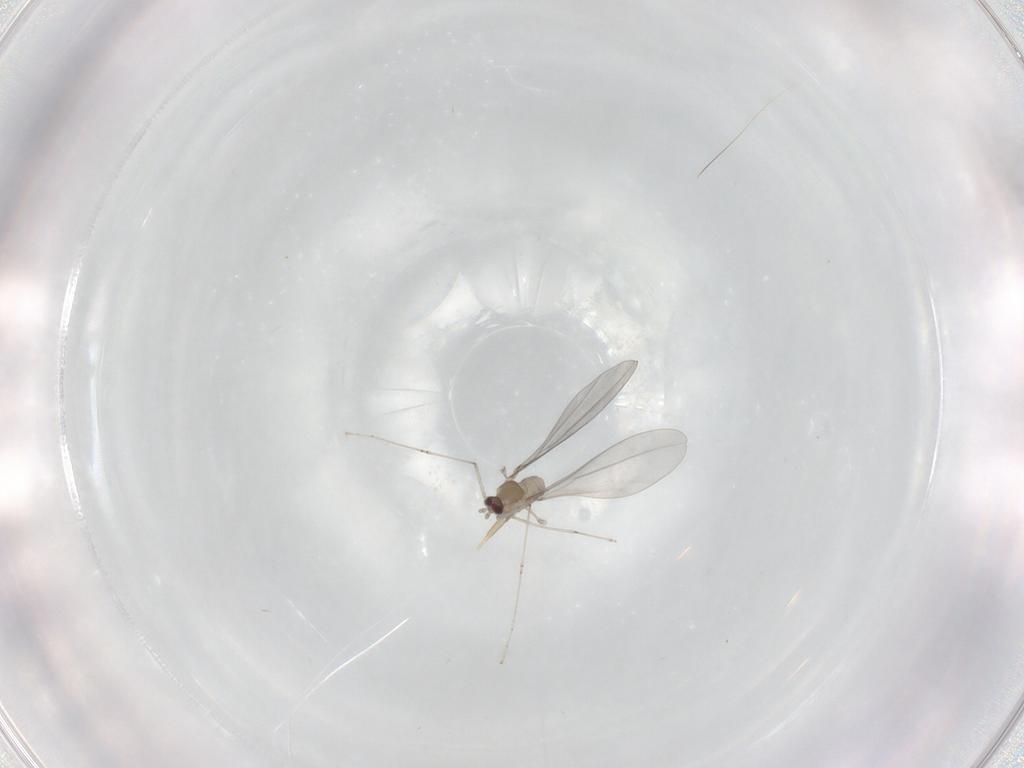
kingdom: Animalia
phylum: Arthropoda
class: Insecta
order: Diptera
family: Cecidomyiidae
